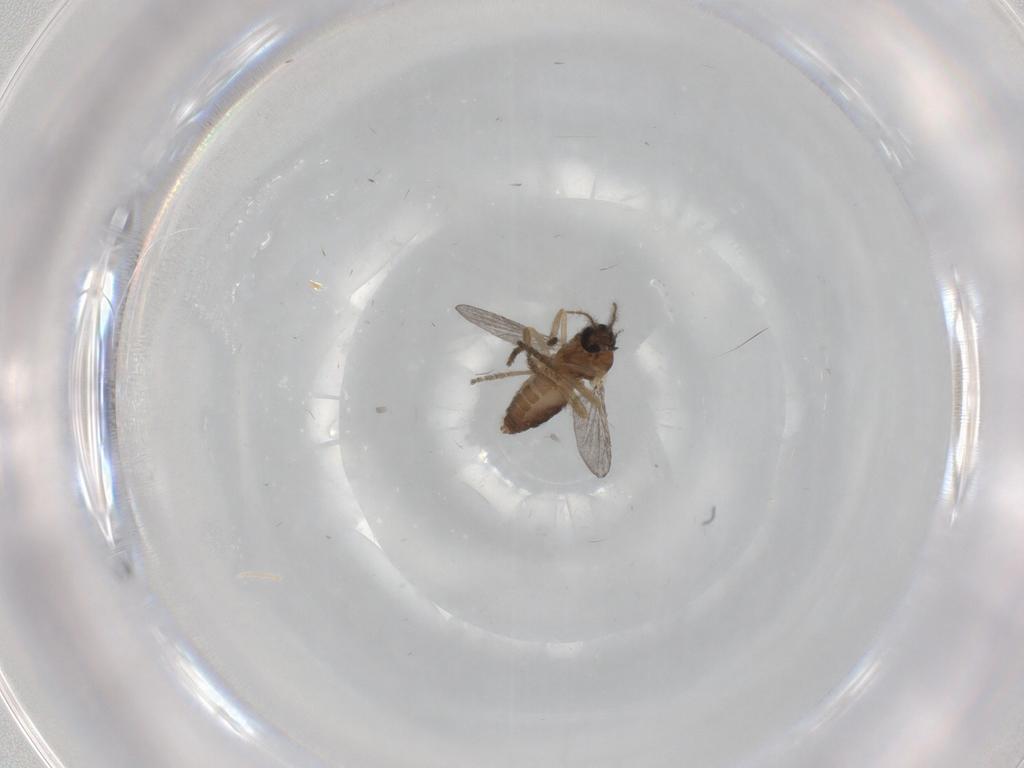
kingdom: Animalia
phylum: Arthropoda
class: Insecta
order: Diptera
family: Ceratopogonidae
